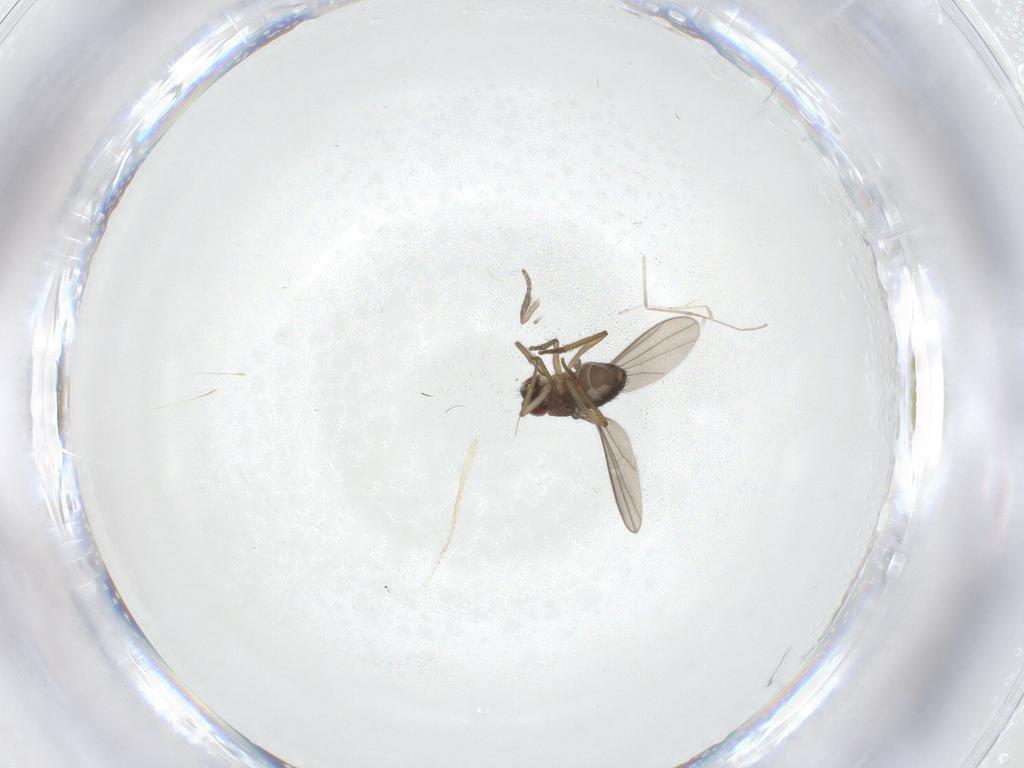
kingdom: Animalia
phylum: Arthropoda
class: Insecta
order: Diptera
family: Dolichopodidae
